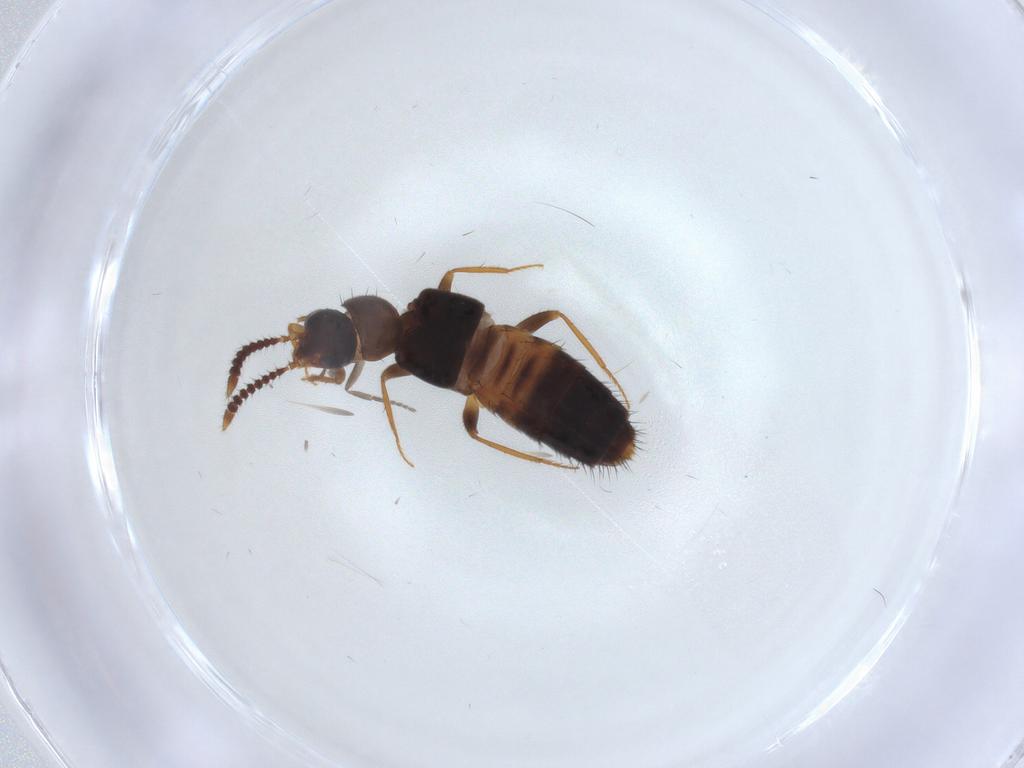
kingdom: Animalia
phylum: Arthropoda
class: Insecta
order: Coleoptera
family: Staphylinidae
